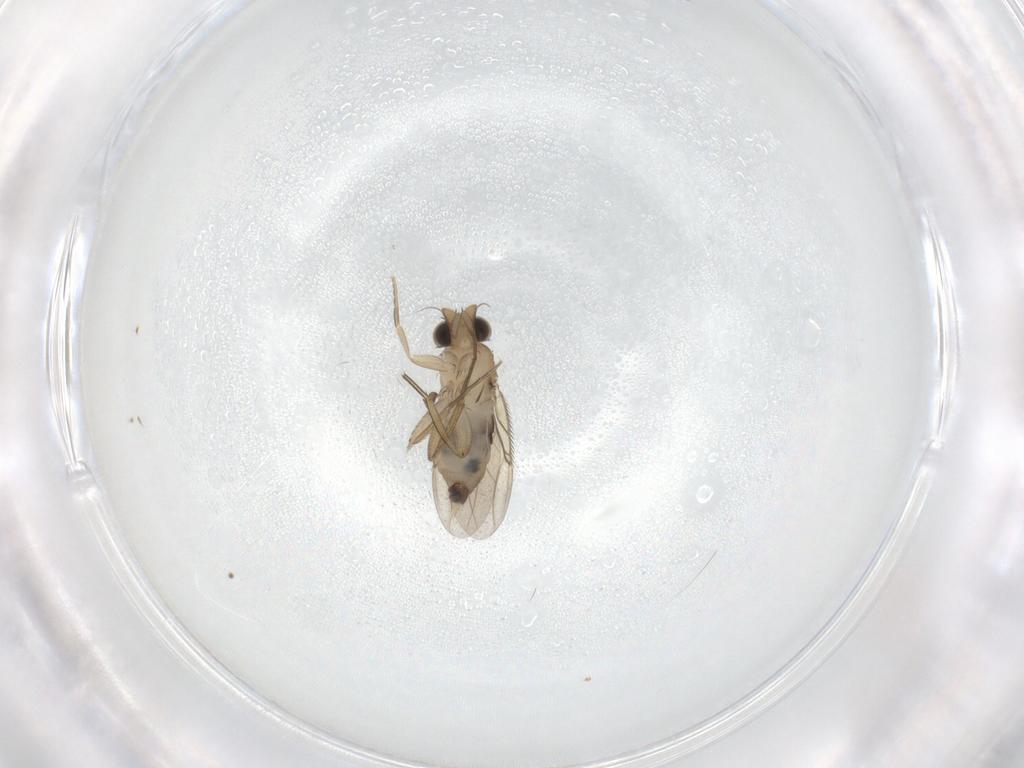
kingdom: Animalia
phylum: Arthropoda
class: Insecta
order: Diptera
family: Phoridae
